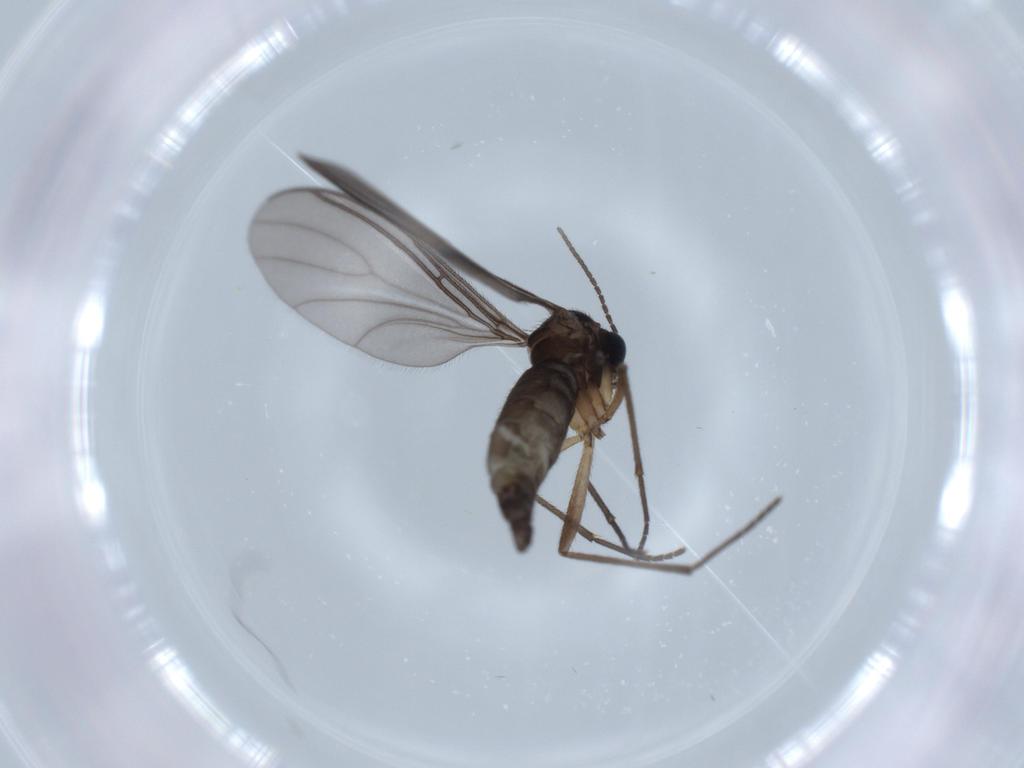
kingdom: Animalia
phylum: Arthropoda
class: Insecta
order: Diptera
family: Sciaridae
